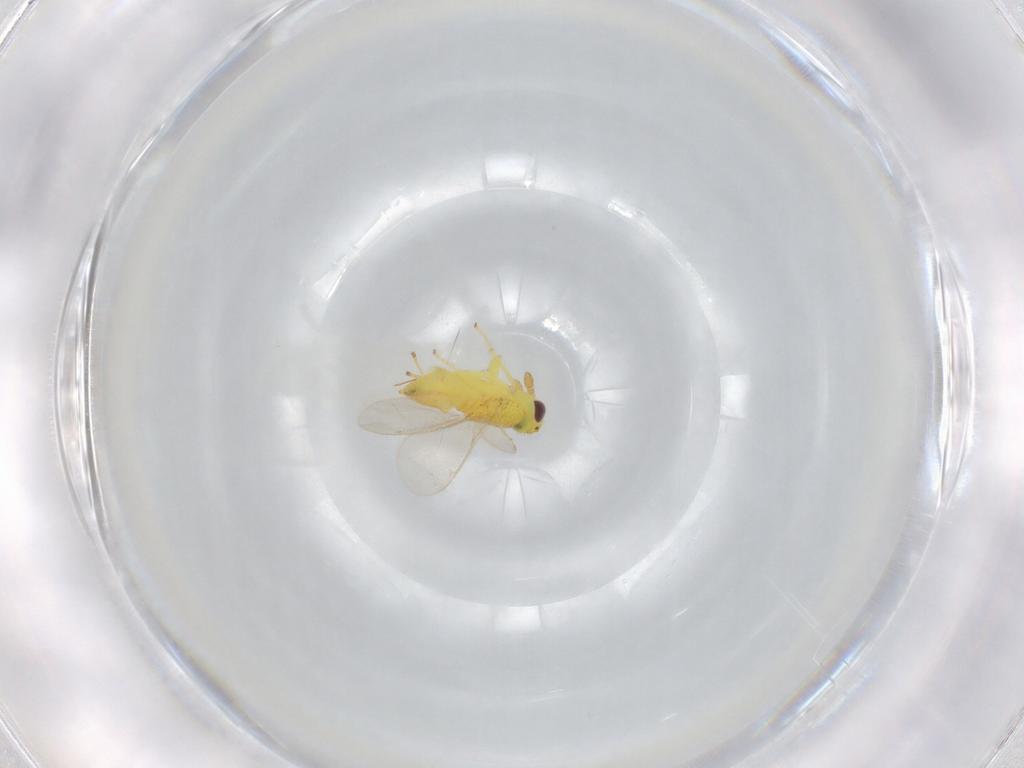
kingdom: Animalia
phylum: Arthropoda
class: Insecta
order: Hymenoptera
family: Aphelinidae
